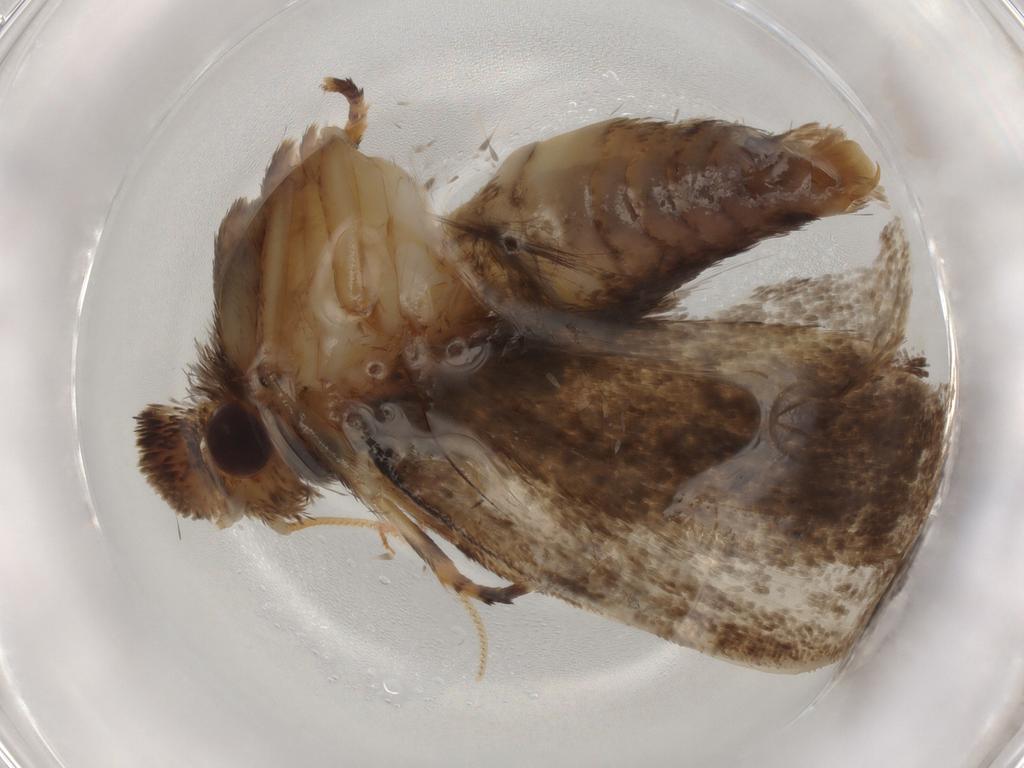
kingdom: Animalia
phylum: Arthropoda
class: Insecta
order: Lepidoptera
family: Tineidae
